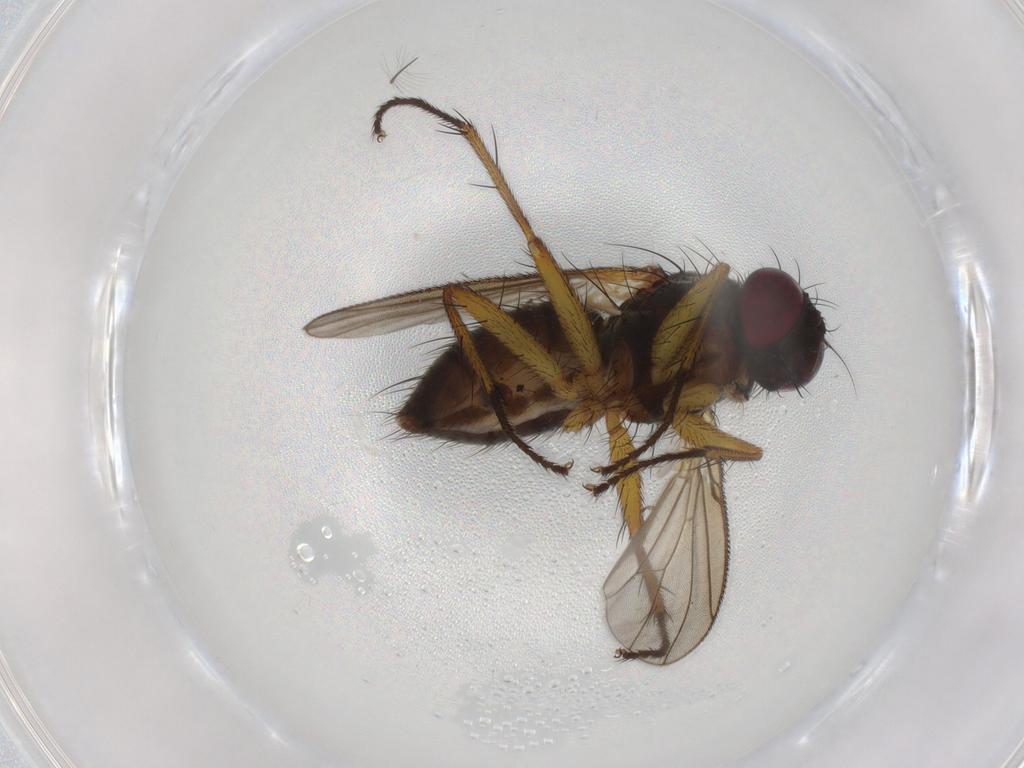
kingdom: Animalia
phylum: Arthropoda
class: Insecta
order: Diptera
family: Muscidae
